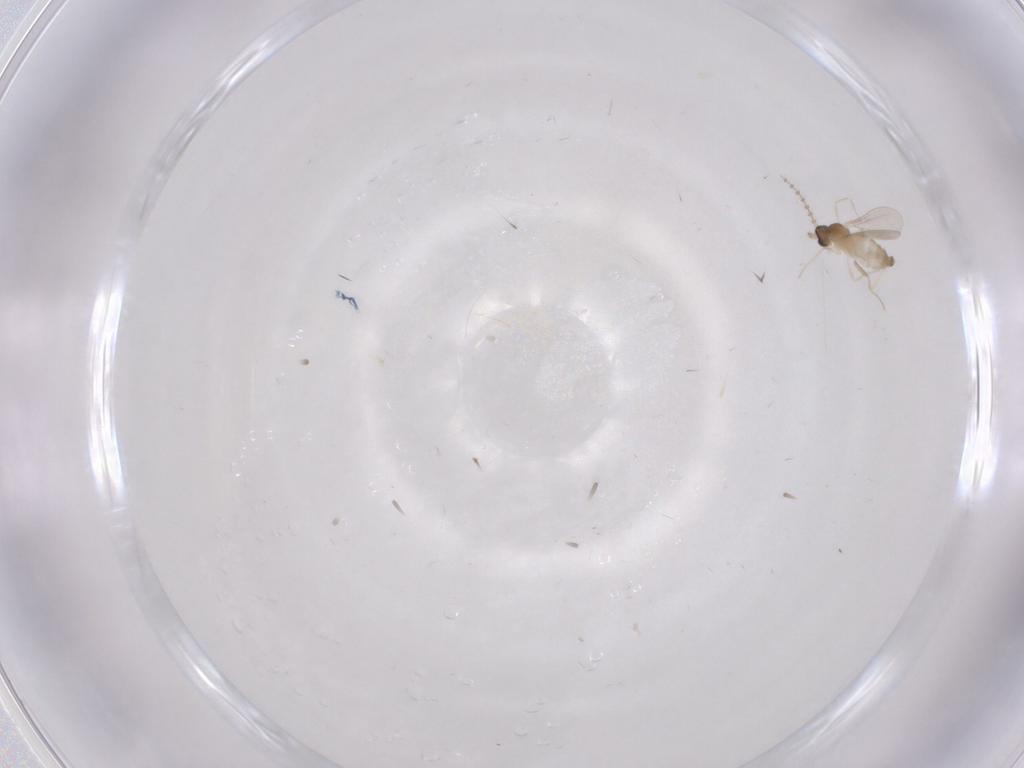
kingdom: Animalia
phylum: Arthropoda
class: Insecta
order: Diptera
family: Cecidomyiidae
